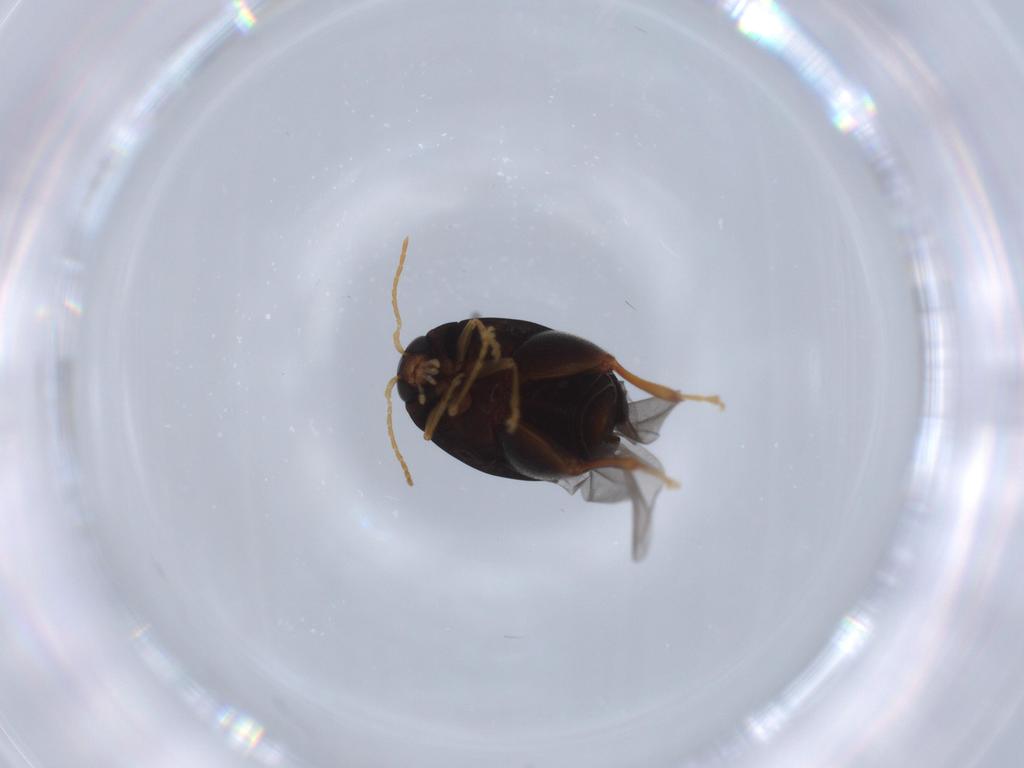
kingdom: Animalia
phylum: Arthropoda
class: Insecta
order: Coleoptera
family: Chrysomelidae
